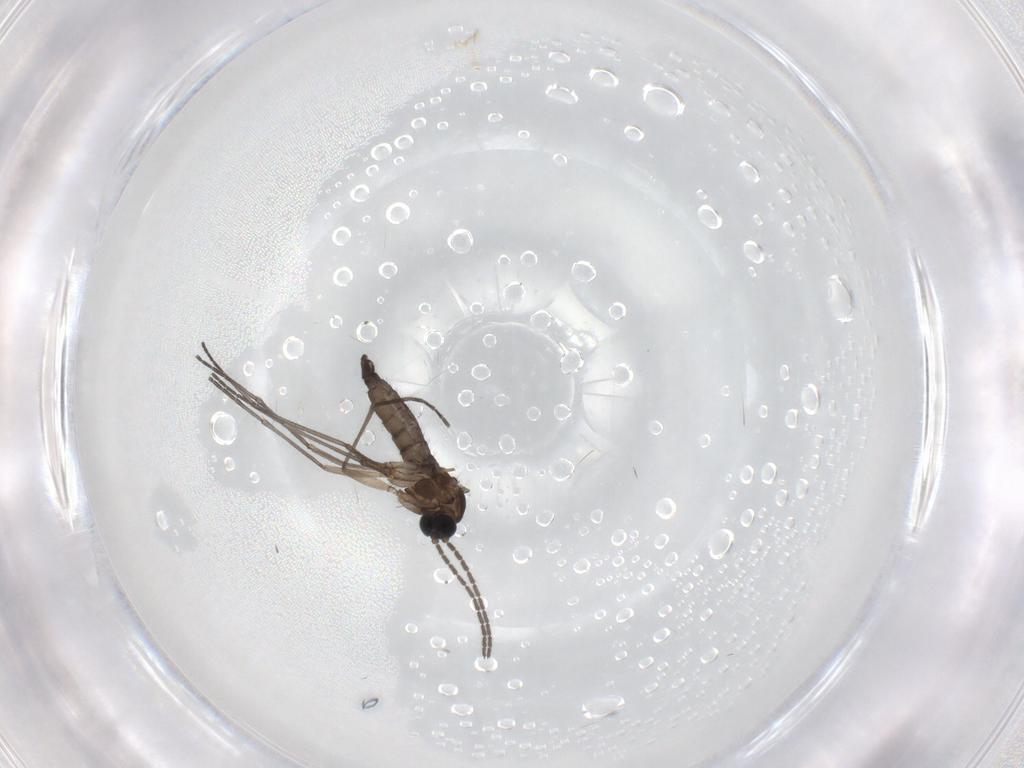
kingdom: Animalia
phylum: Arthropoda
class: Insecta
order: Diptera
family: Sciaridae
